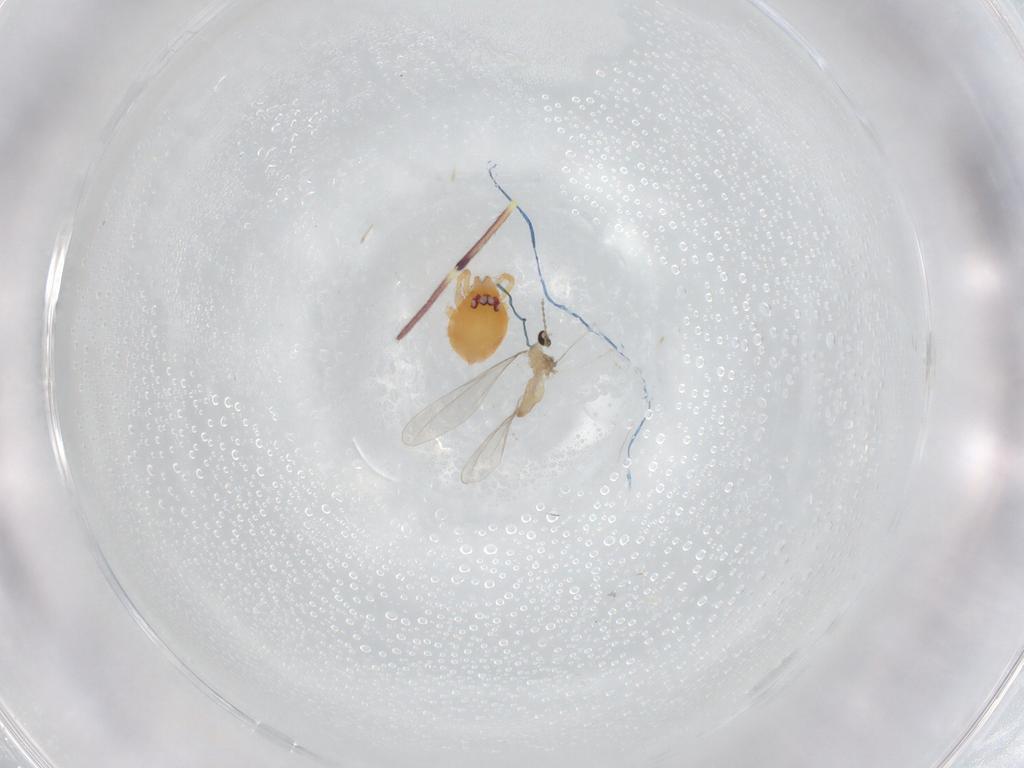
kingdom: Animalia
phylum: Arthropoda
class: Insecta
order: Diptera
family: Cecidomyiidae
